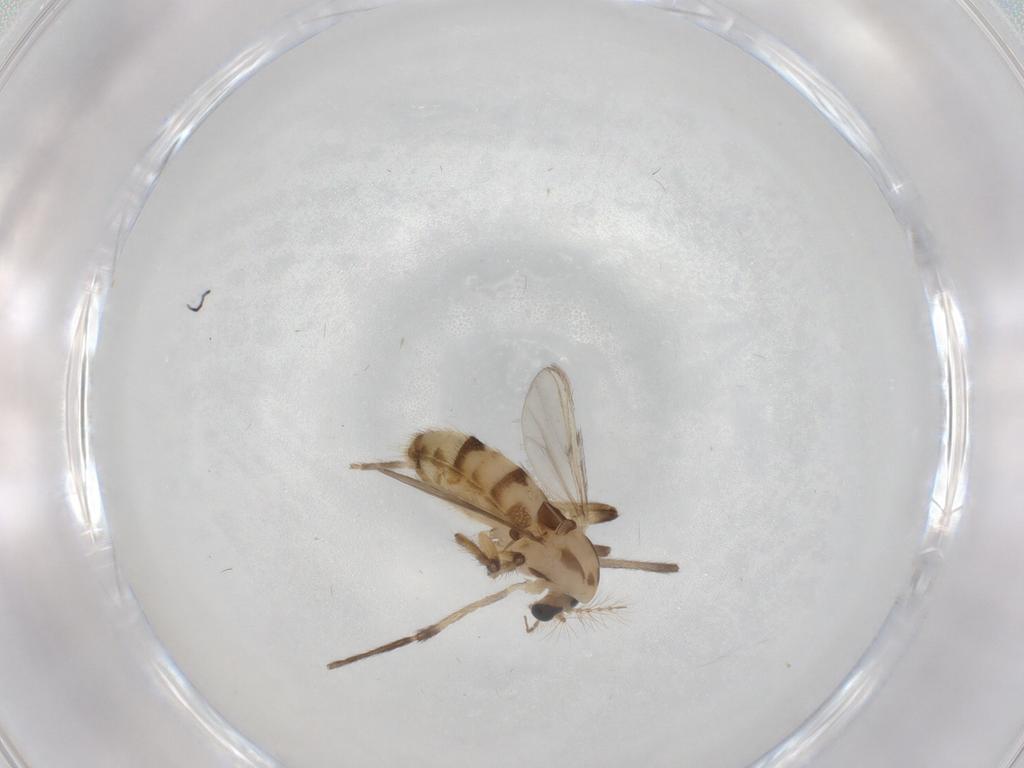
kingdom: Animalia
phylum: Arthropoda
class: Insecta
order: Diptera
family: Chironomidae
